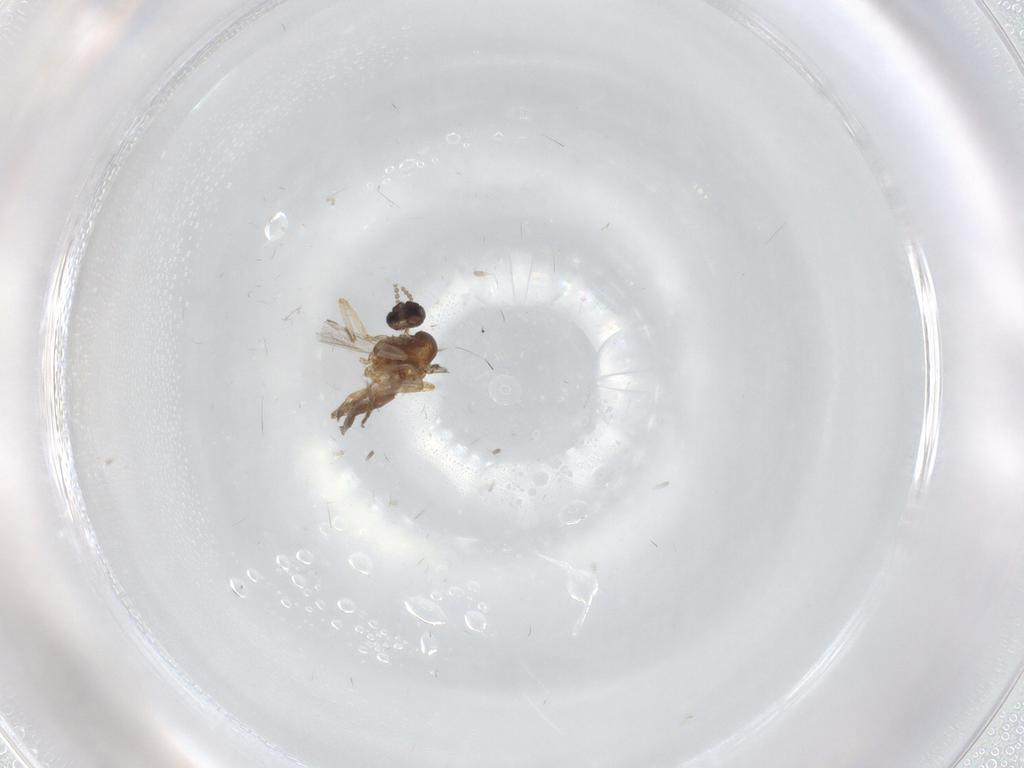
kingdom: Animalia
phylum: Arthropoda
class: Insecta
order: Diptera
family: Ceratopogonidae
